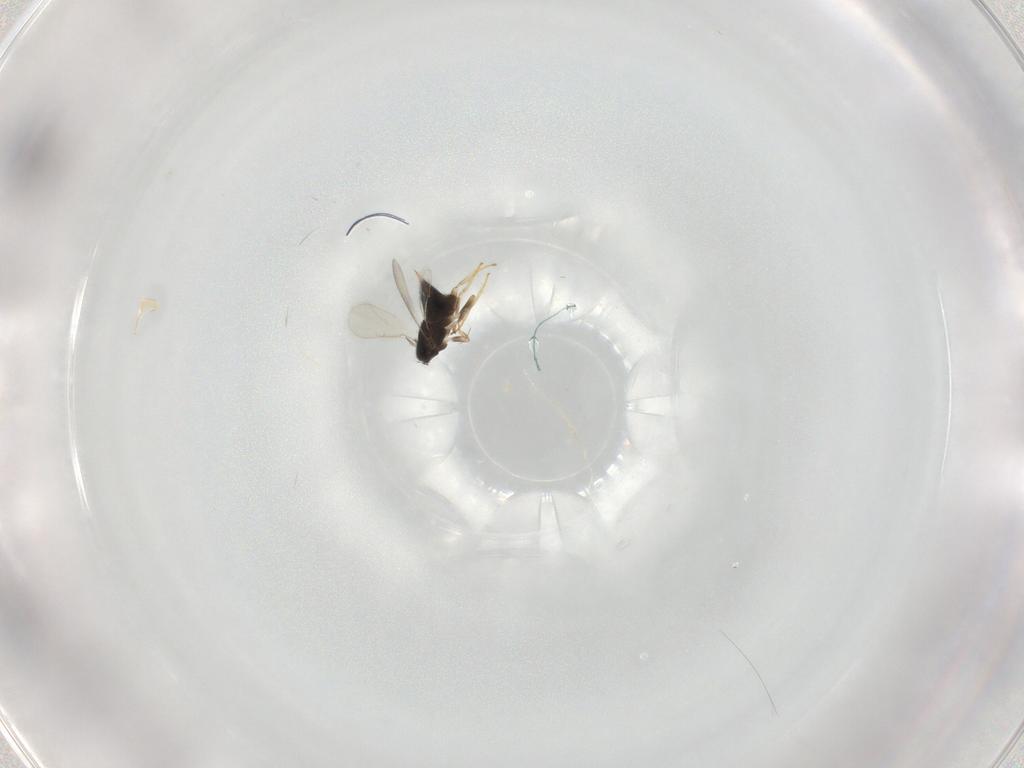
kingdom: Animalia
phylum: Arthropoda
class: Insecta
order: Hymenoptera
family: Aphelinidae
